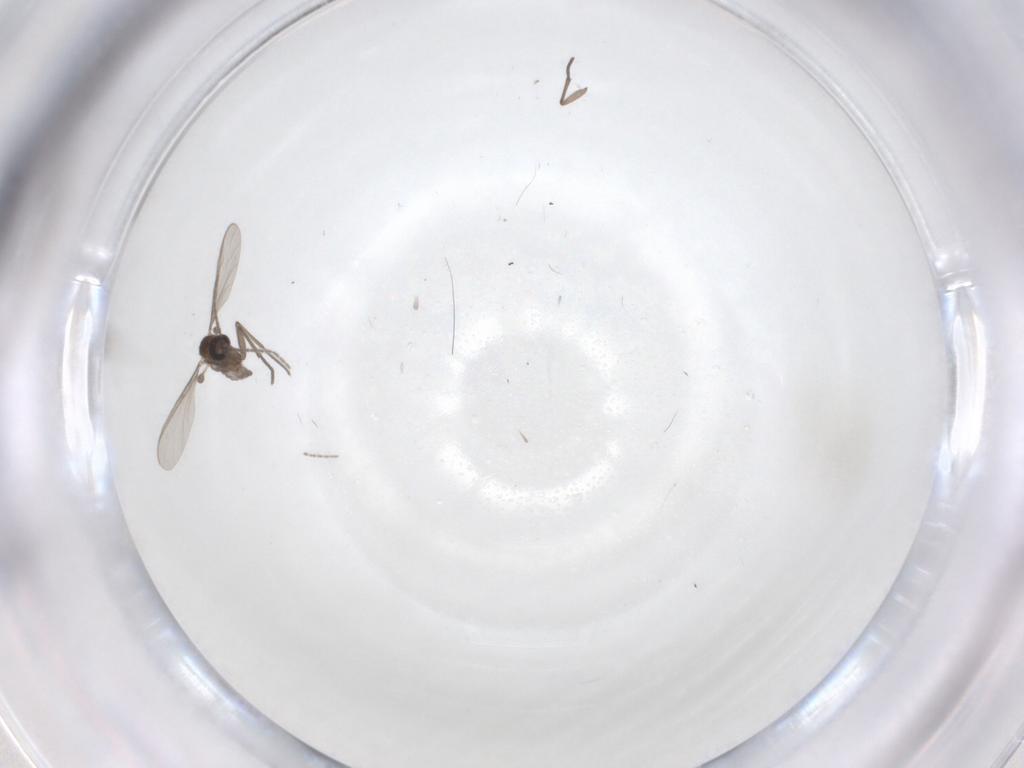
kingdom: Animalia
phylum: Arthropoda
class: Insecta
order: Diptera
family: Sciaridae
